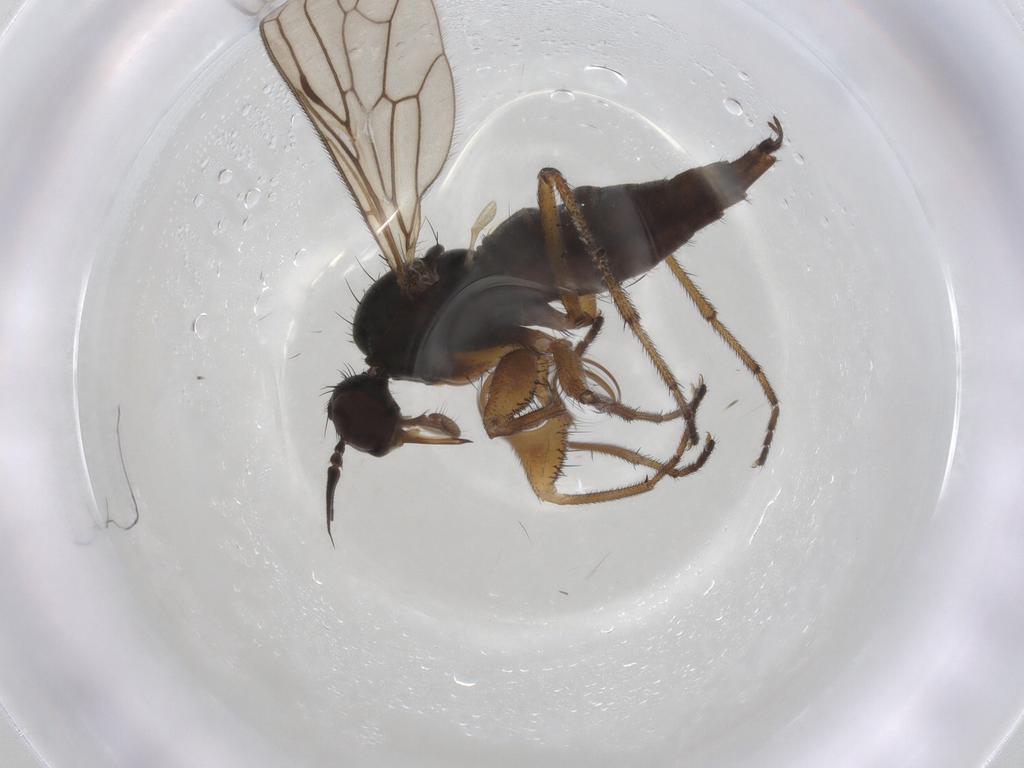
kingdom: Animalia
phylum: Arthropoda
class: Insecta
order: Diptera
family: Empididae
